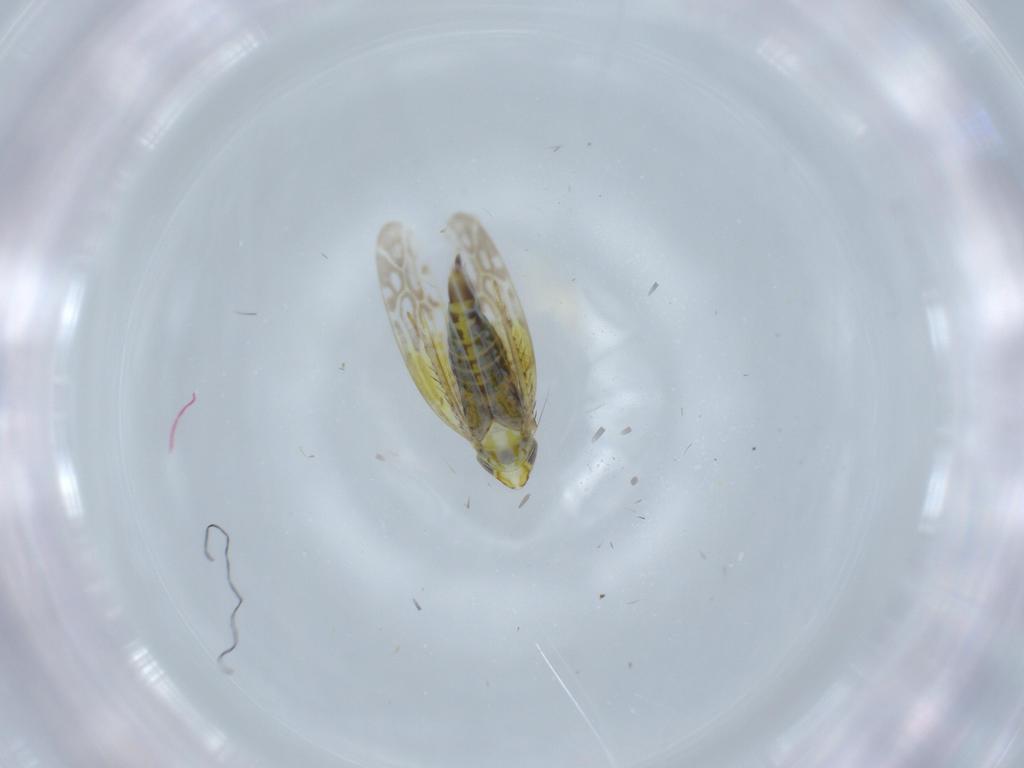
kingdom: Animalia
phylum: Arthropoda
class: Insecta
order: Hemiptera
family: Cicadellidae
